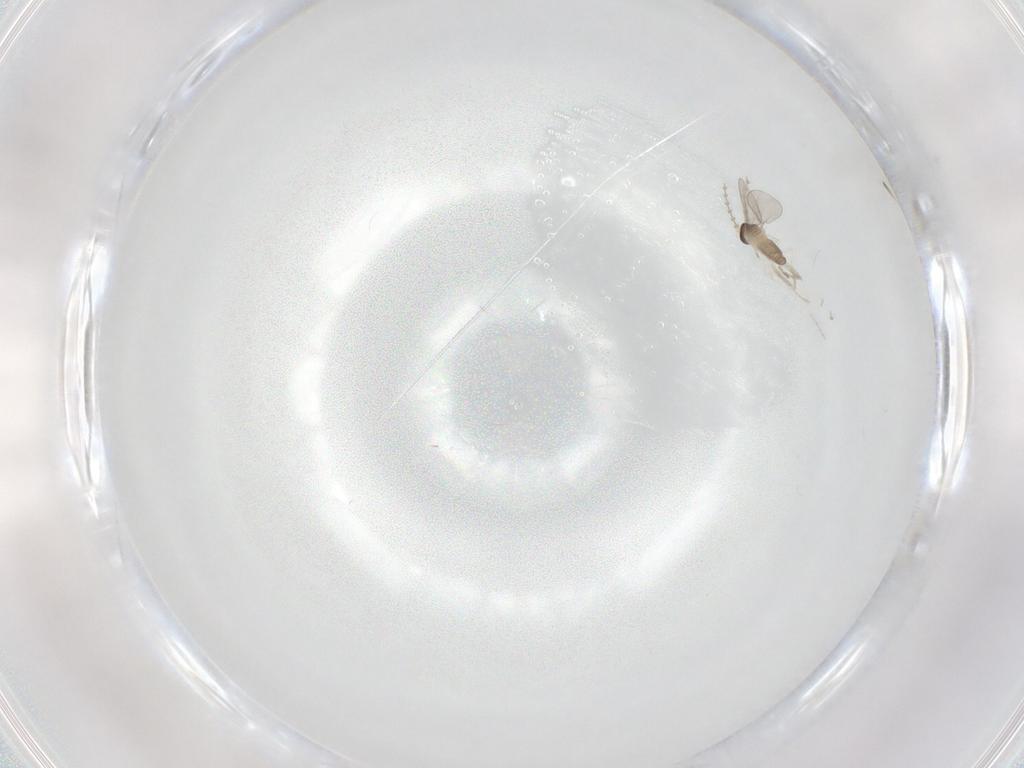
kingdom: Animalia
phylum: Arthropoda
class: Insecta
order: Diptera
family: Cecidomyiidae
